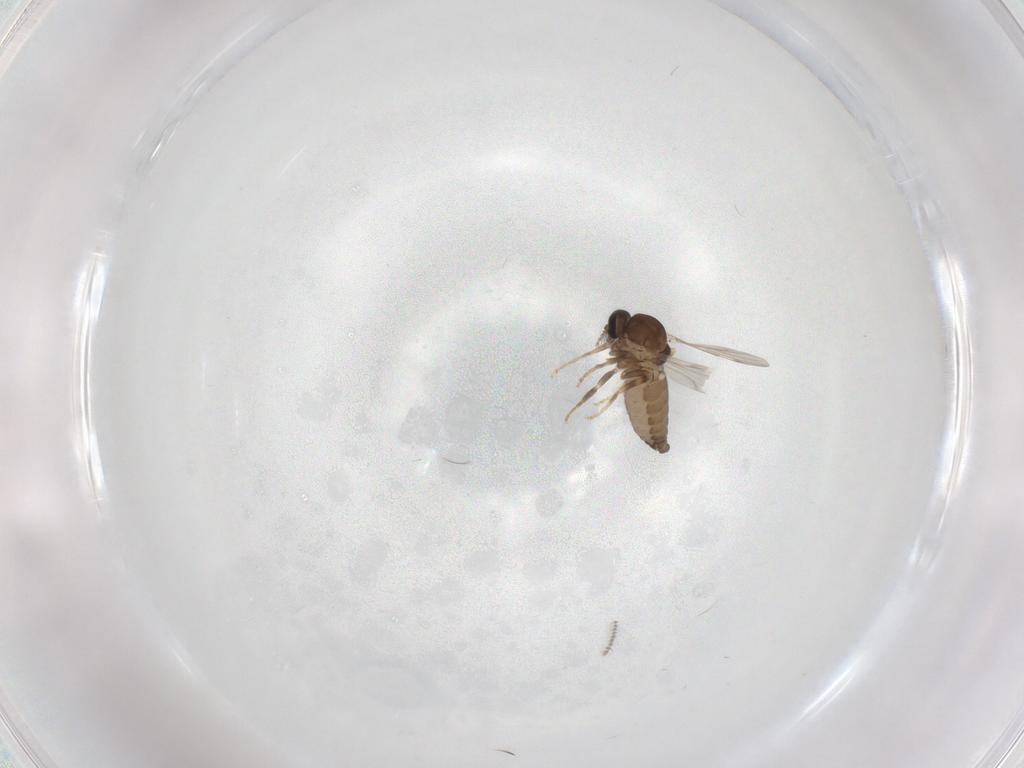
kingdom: Animalia
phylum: Arthropoda
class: Insecta
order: Diptera
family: Ceratopogonidae
